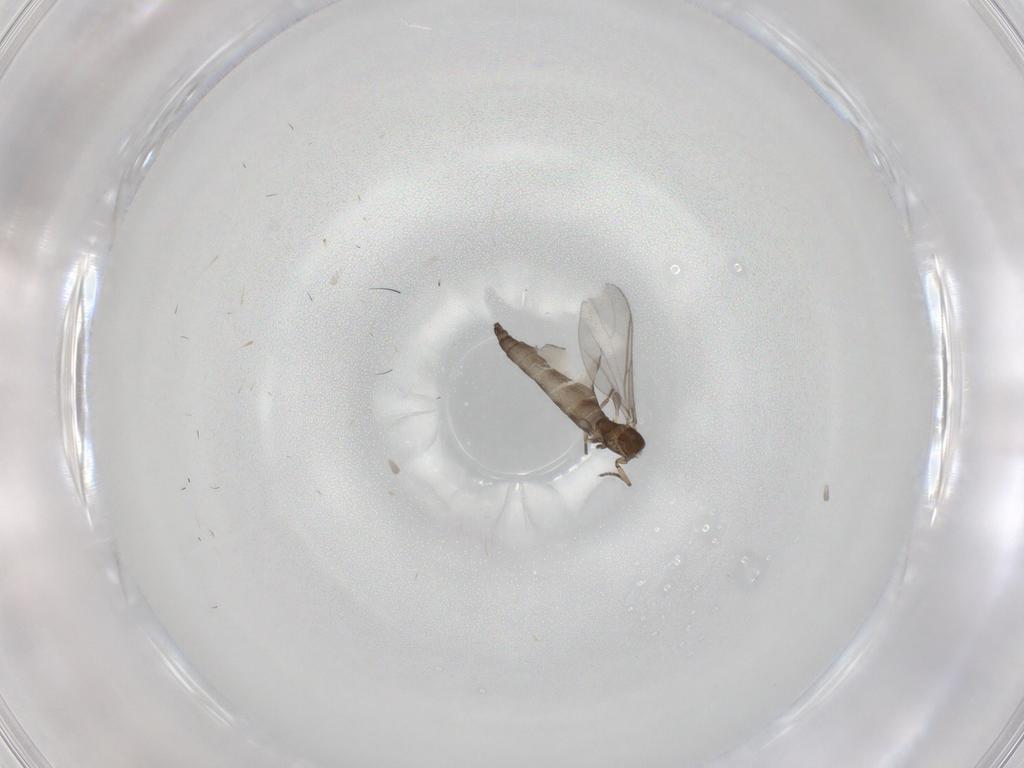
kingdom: Animalia
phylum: Arthropoda
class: Insecta
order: Diptera
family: Sciaridae
